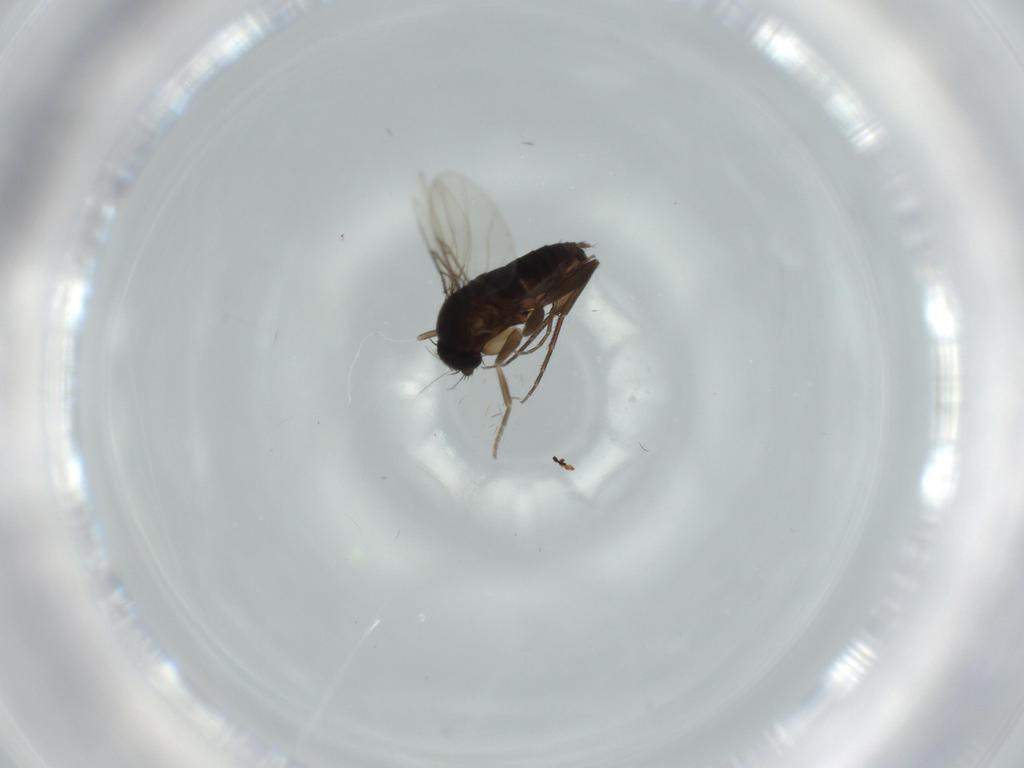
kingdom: Animalia
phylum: Arthropoda
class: Insecta
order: Diptera
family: Phoridae
